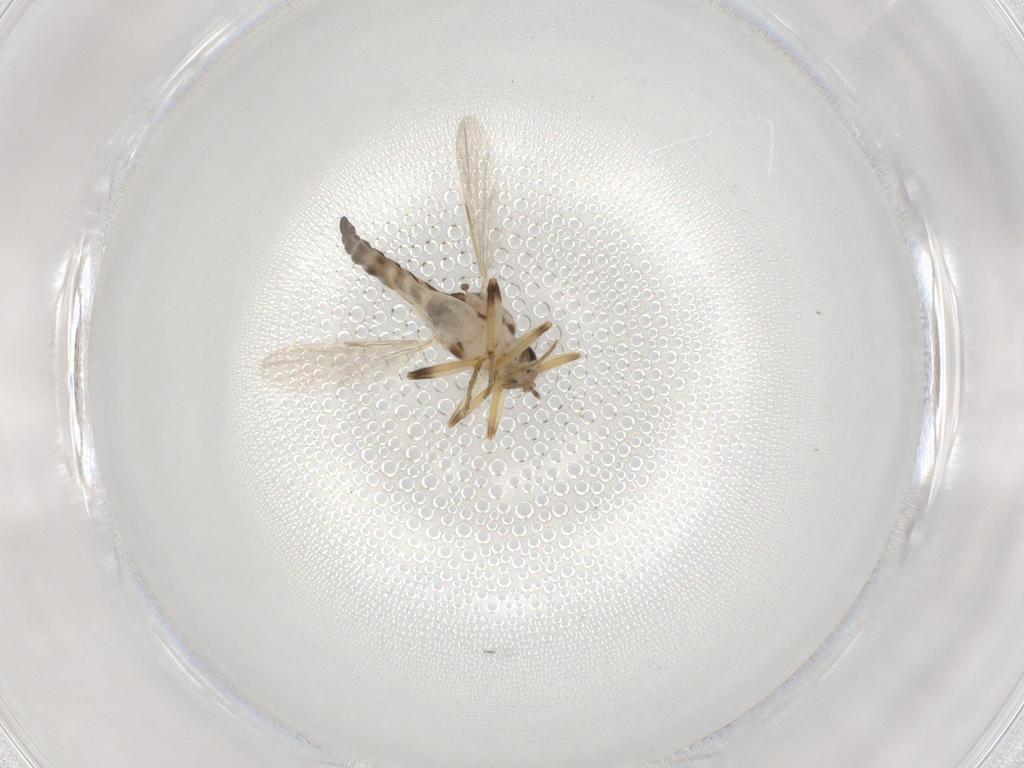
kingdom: Animalia
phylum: Arthropoda
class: Insecta
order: Diptera
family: Ceratopogonidae
